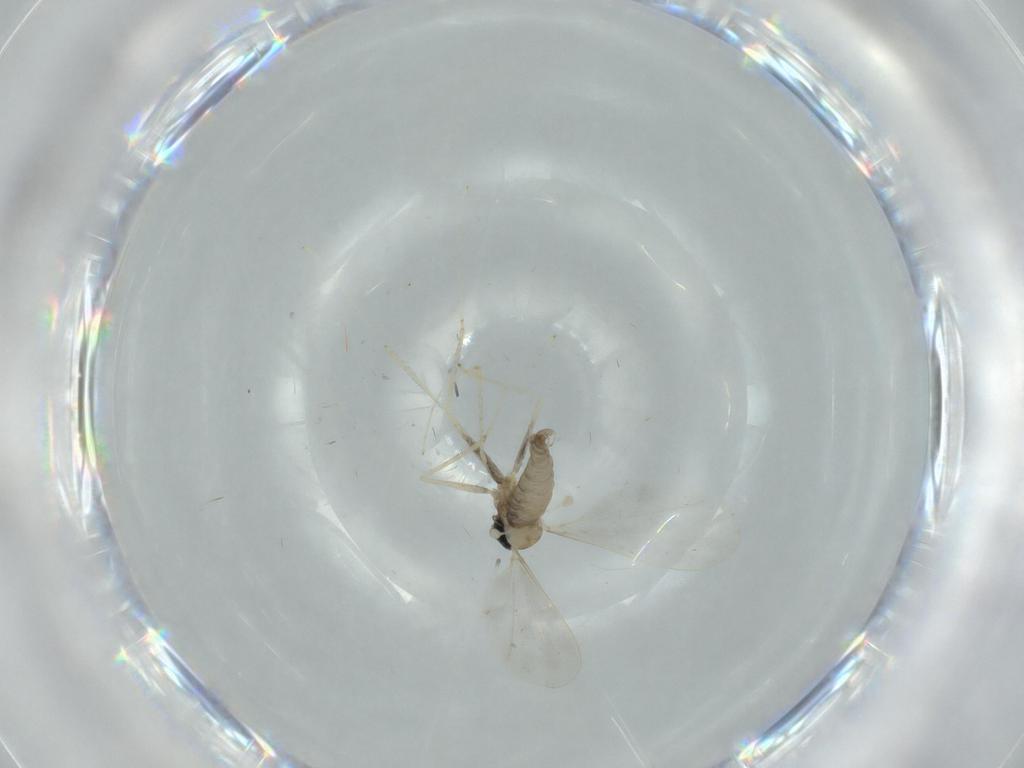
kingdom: Animalia
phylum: Arthropoda
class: Insecta
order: Diptera
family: Cecidomyiidae
